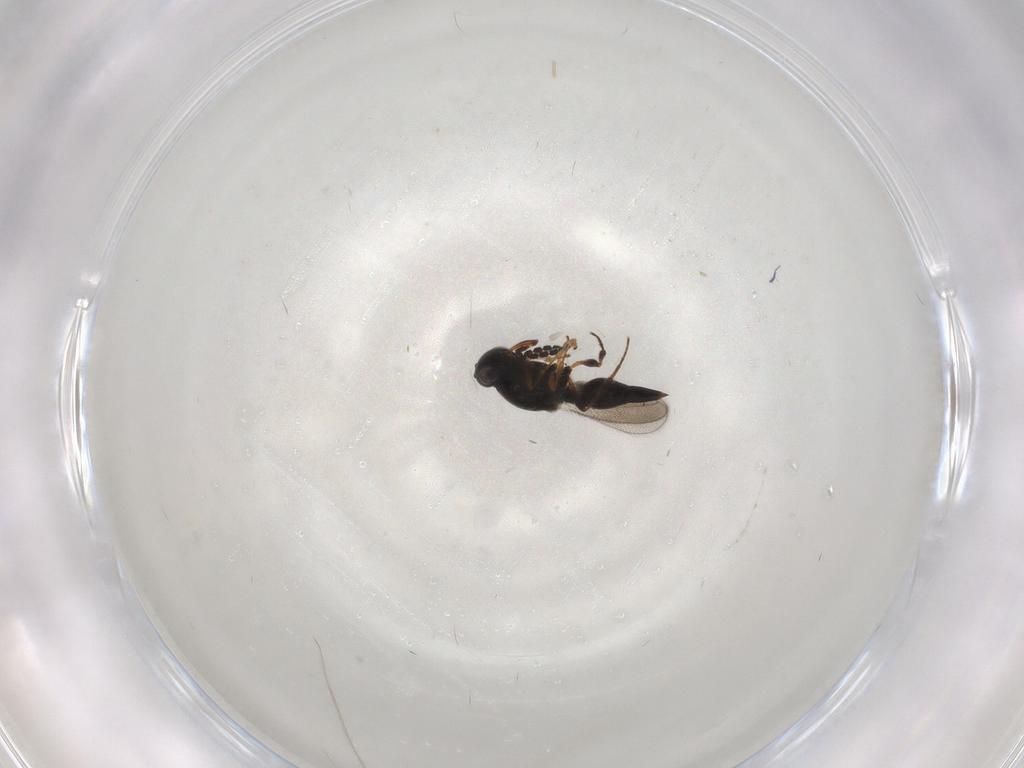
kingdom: Animalia
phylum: Arthropoda
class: Insecta
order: Hymenoptera
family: Platygastridae
